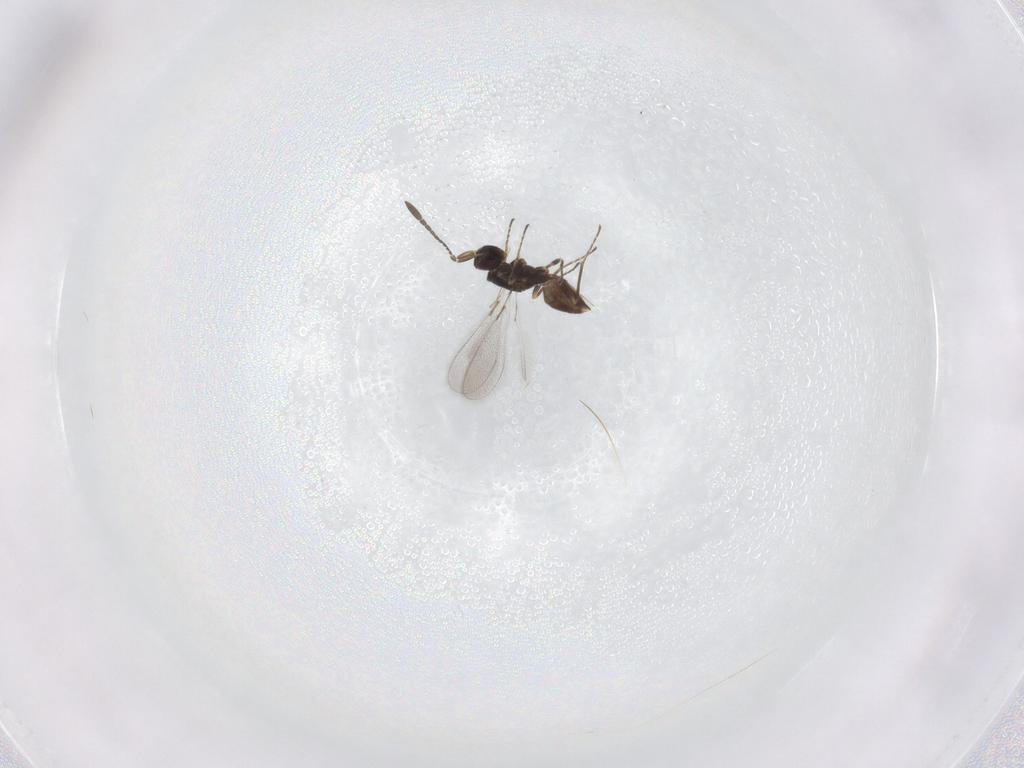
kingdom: Animalia
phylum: Arthropoda
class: Insecta
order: Hymenoptera
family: Mymaridae
